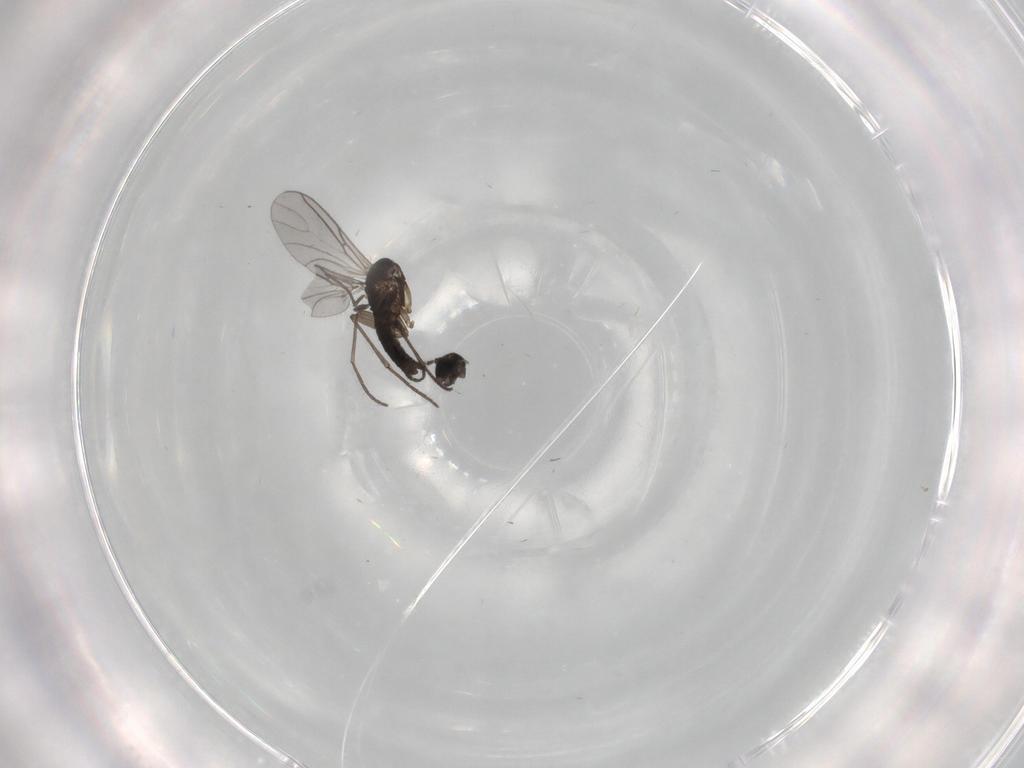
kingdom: Animalia
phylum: Arthropoda
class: Insecta
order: Diptera
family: Sciaridae
